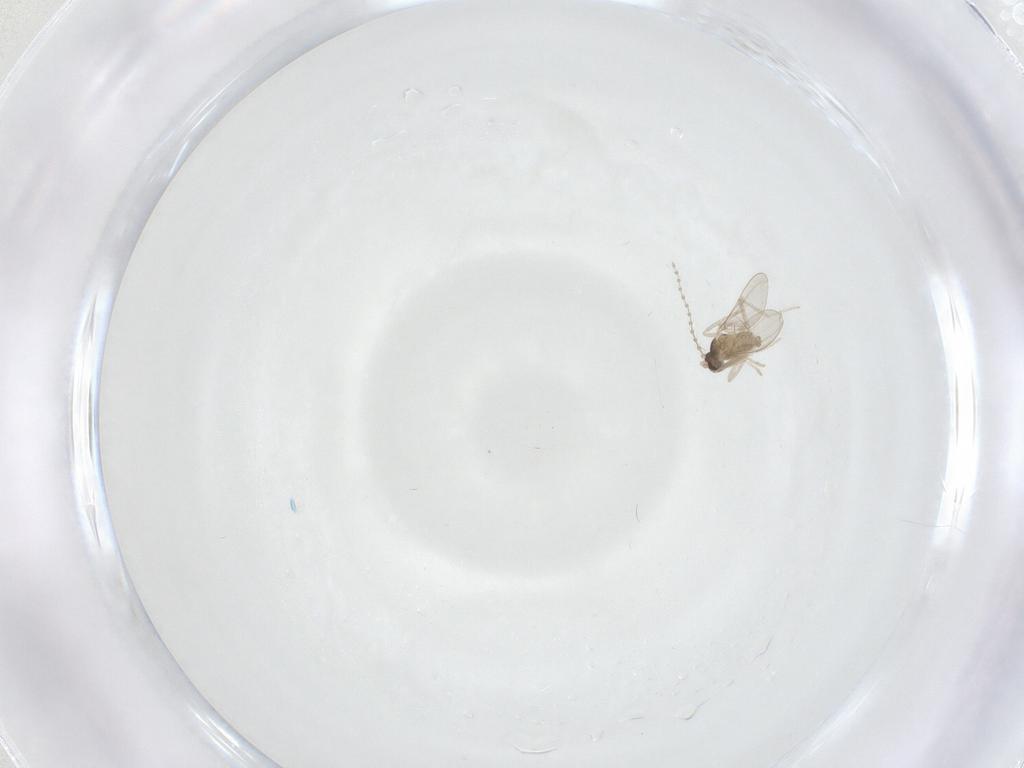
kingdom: Animalia
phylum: Arthropoda
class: Insecta
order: Diptera
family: Cecidomyiidae
